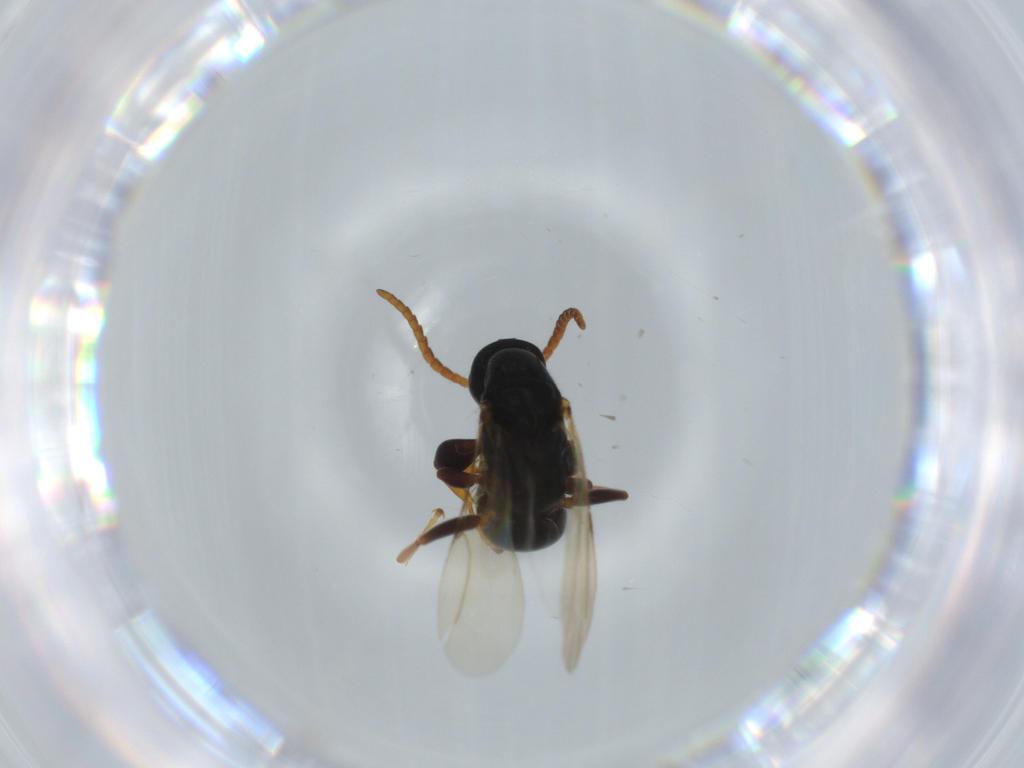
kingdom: Animalia
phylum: Arthropoda
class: Insecta
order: Hymenoptera
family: Bethylidae
